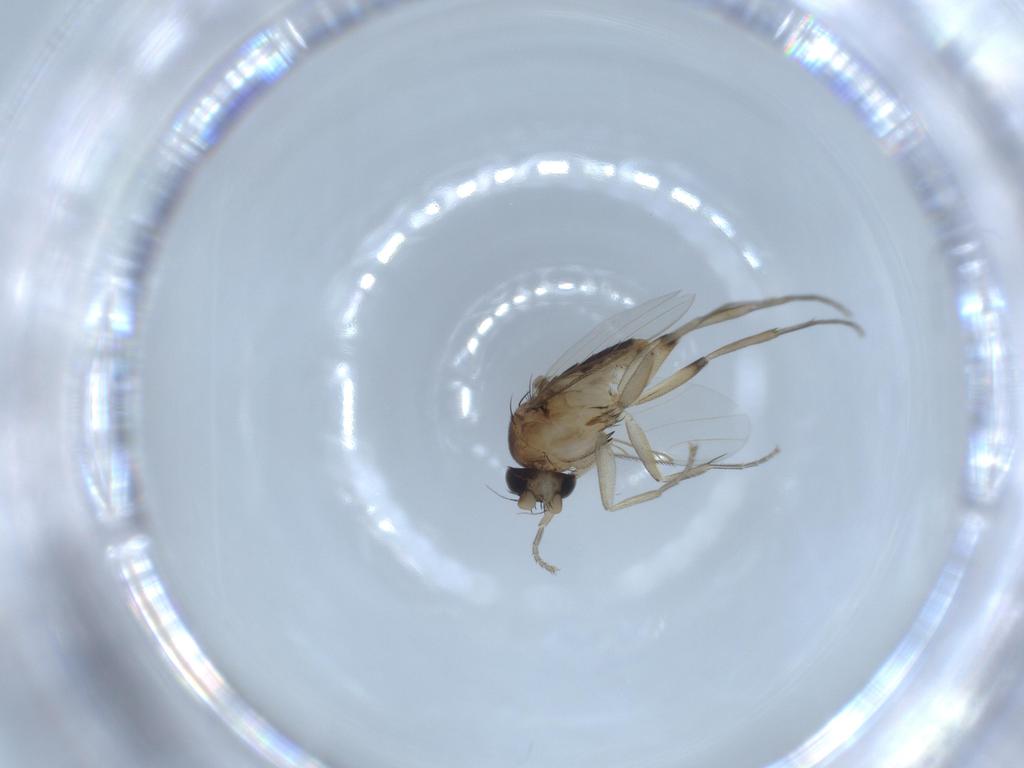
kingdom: Animalia
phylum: Arthropoda
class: Insecta
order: Diptera
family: Dolichopodidae
